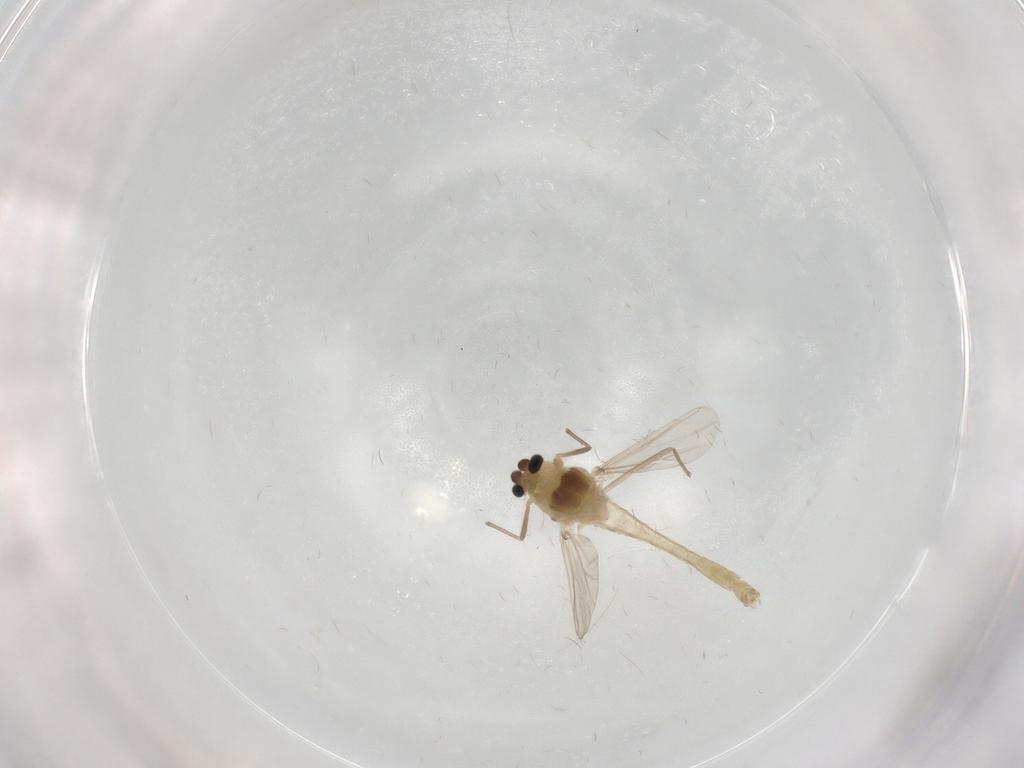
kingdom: Animalia
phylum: Arthropoda
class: Insecta
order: Diptera
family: Chironomidae
